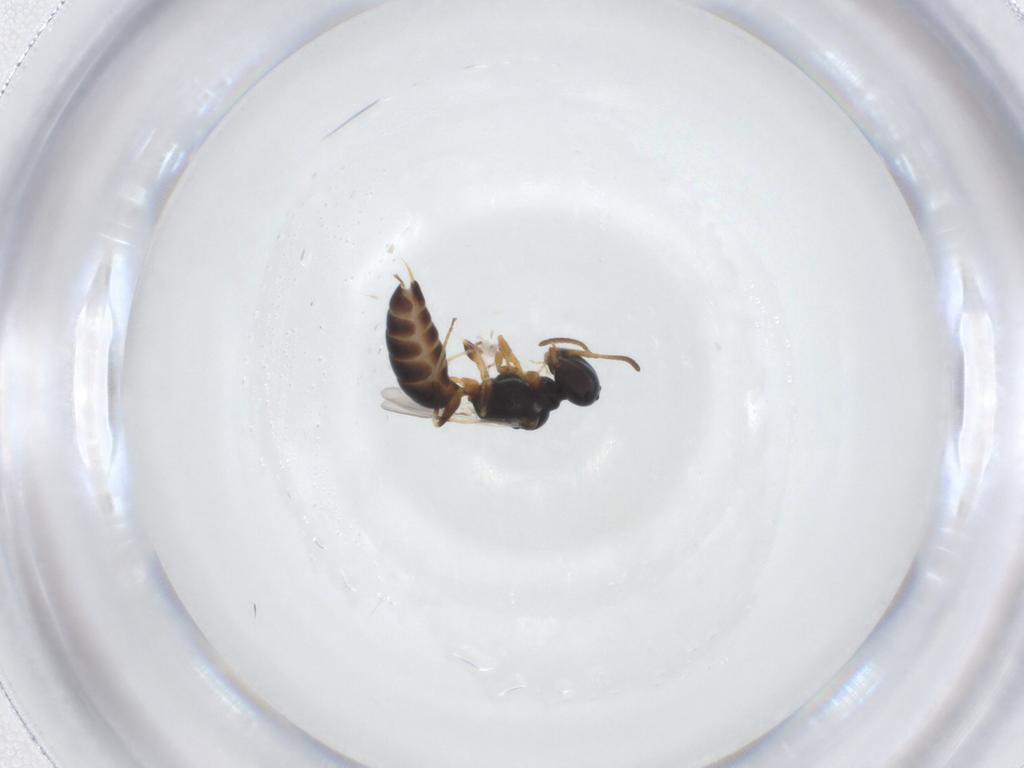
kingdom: Animalia
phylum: Arthropoda
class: Insecta
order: Hymenoptera
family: Pemphredonidae
